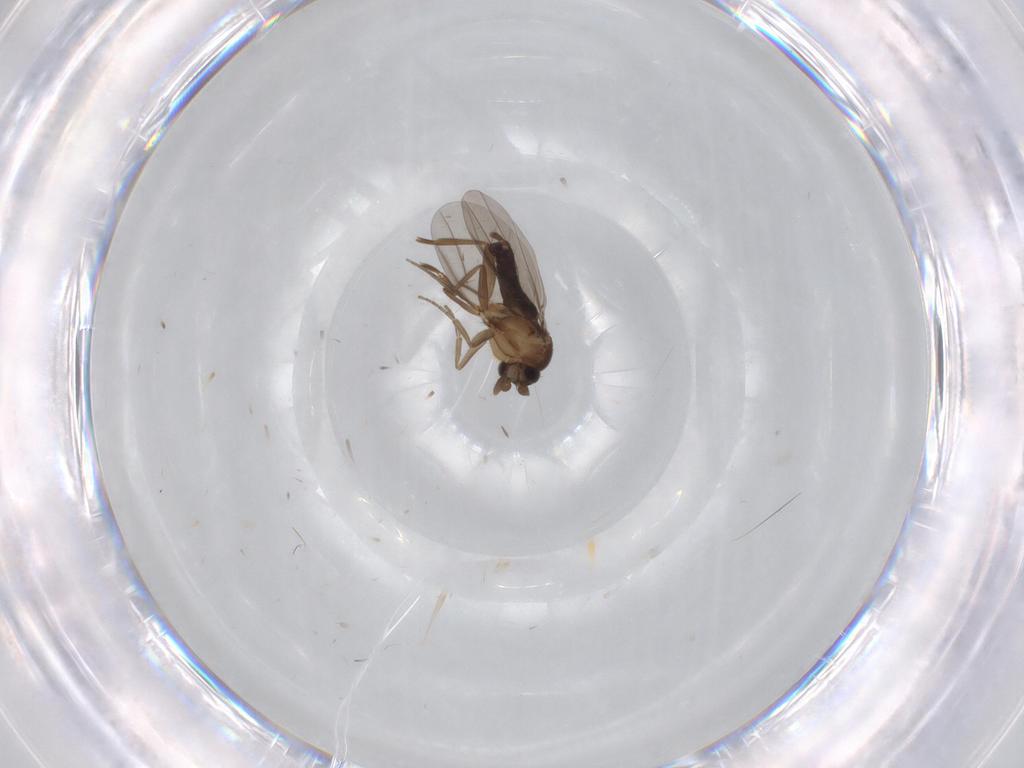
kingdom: Animalia
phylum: Arthropoda
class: Insecta
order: Diptera
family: Phoridae
